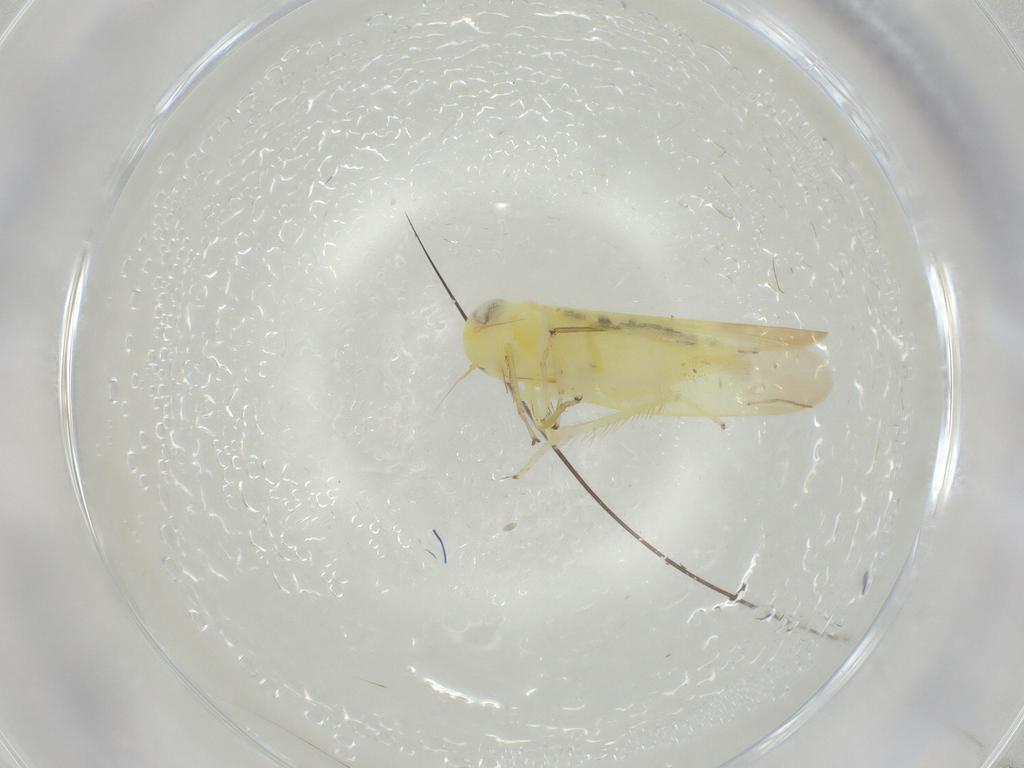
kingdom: Animalia
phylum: Arthropoda
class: Insecta
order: Hemiptera
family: Cicadellidae
